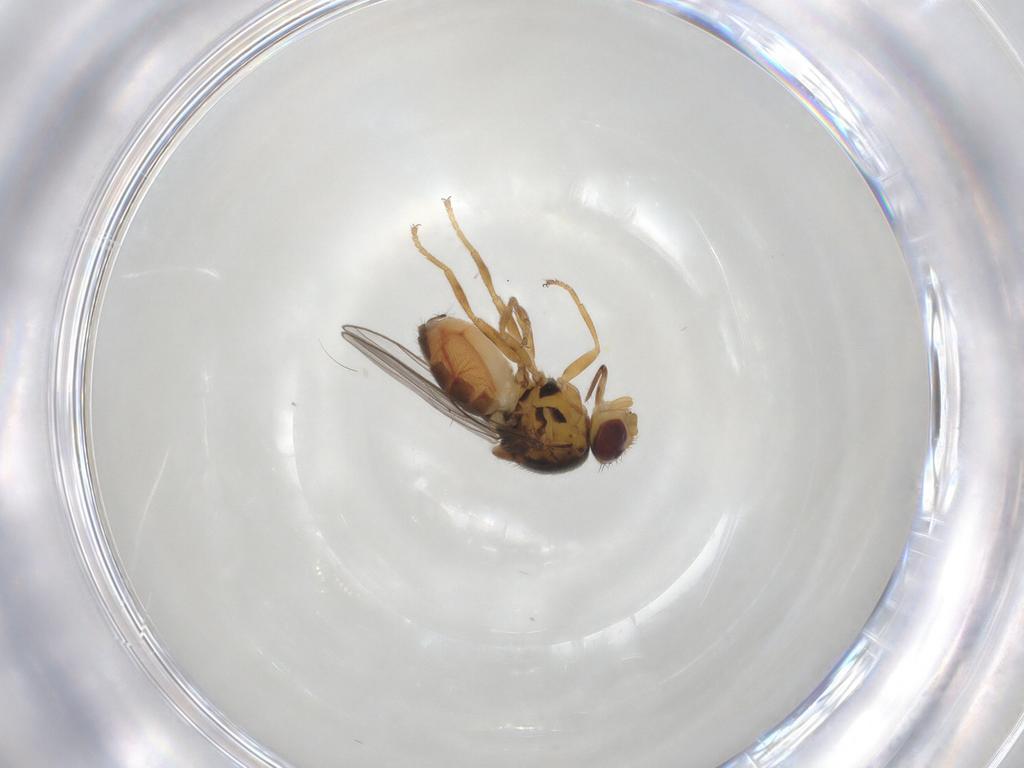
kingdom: Animalia
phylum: Arthropoda
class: Insecta
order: Diptera
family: Chloropidae
